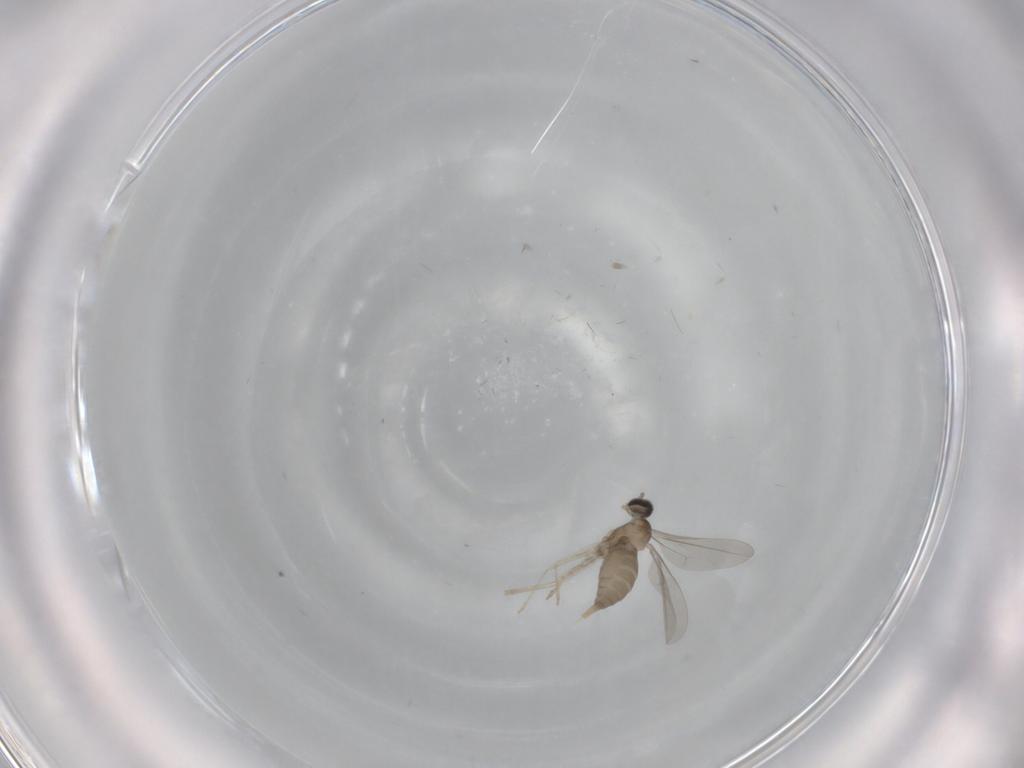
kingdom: Animalia
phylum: Arthropoda
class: Insecta
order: Diptera
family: Cecidomyiidae
